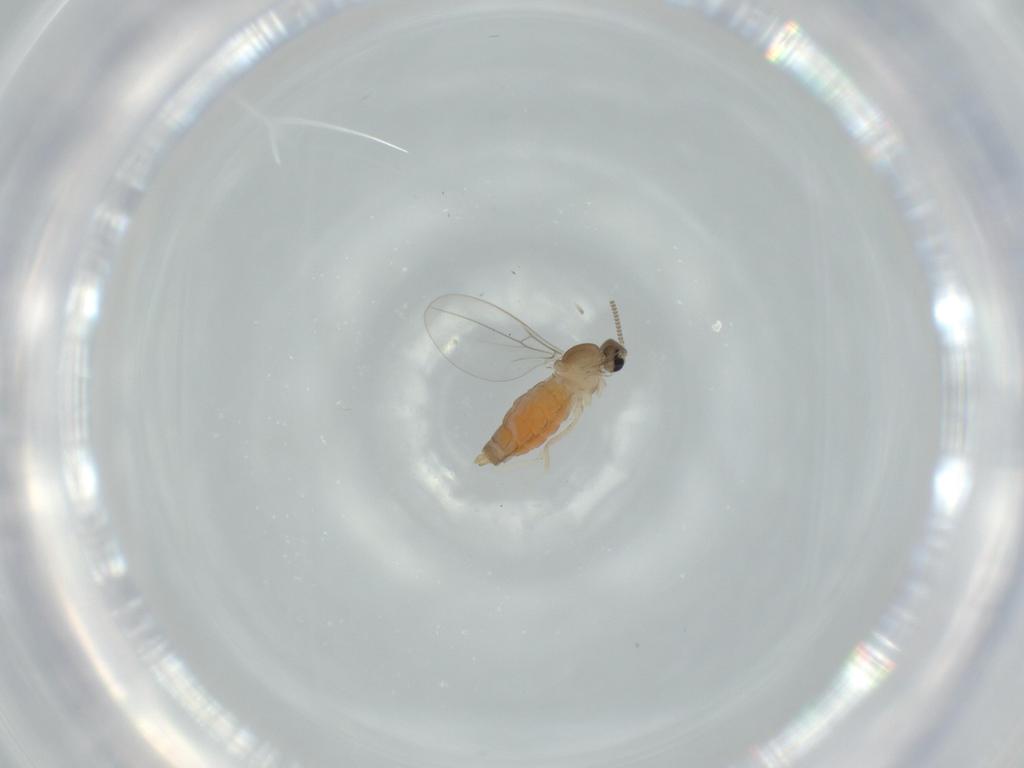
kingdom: Animalia
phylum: Arthropoda
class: Insecta
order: Diptera
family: Cecidomyiidae
